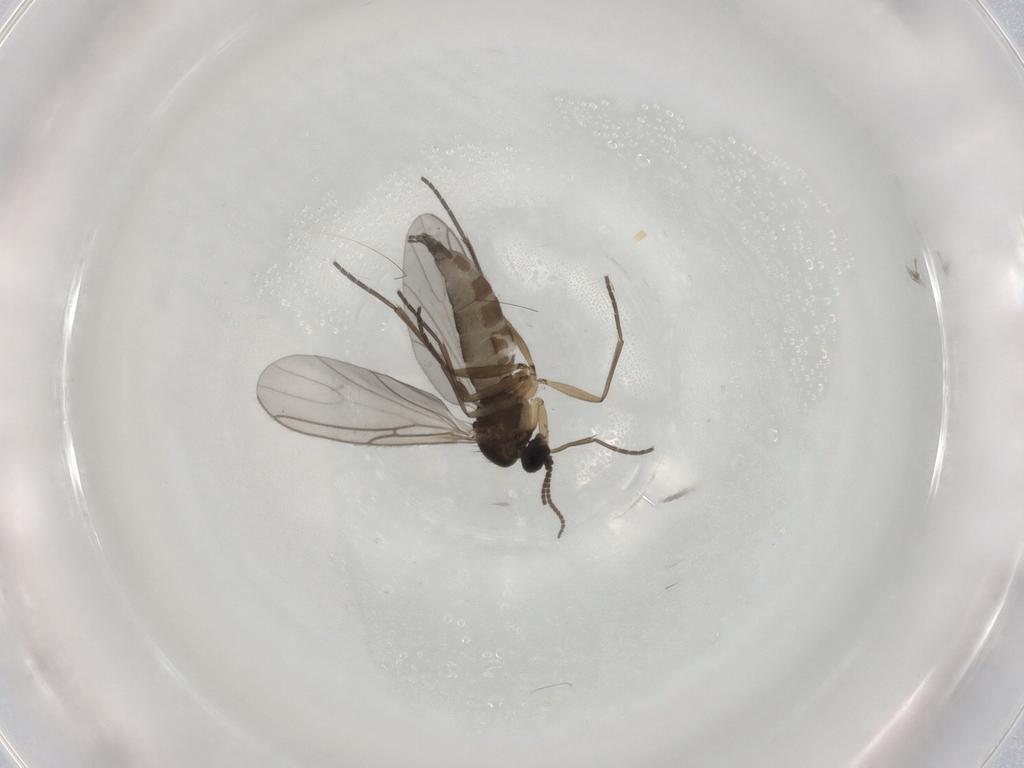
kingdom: Animalia
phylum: Arthropoda
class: Insecta
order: Diptera
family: Sciaridae
